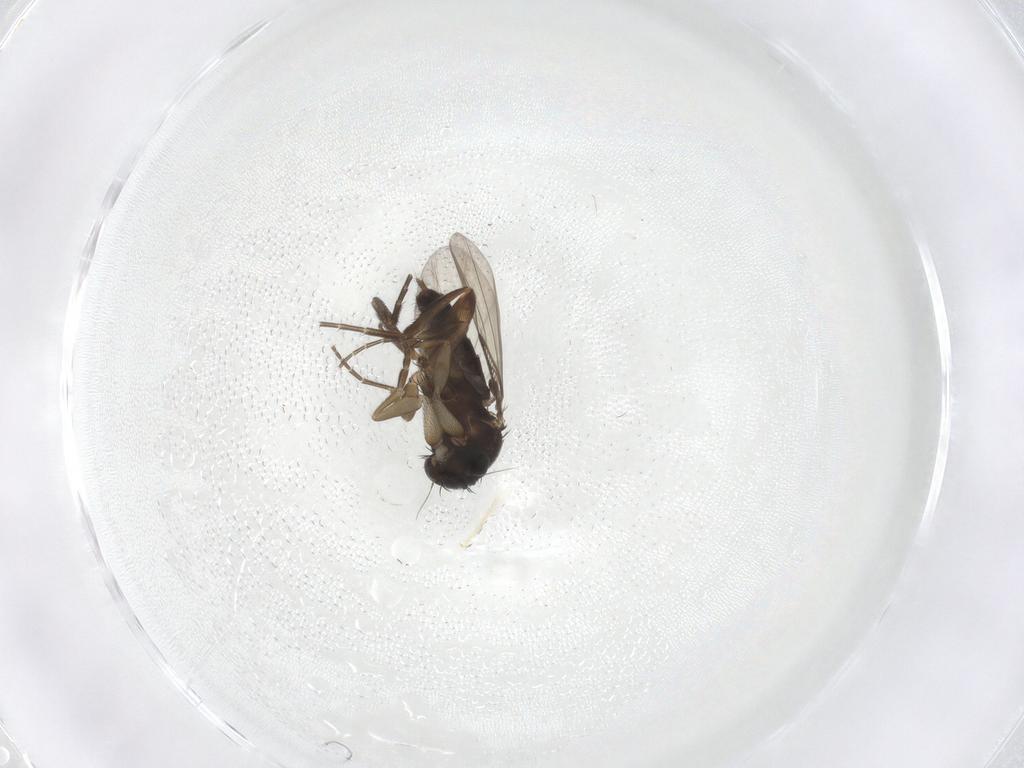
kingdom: Animalia
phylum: Arthropoda
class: Insecta
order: Diptera
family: Phoridae
